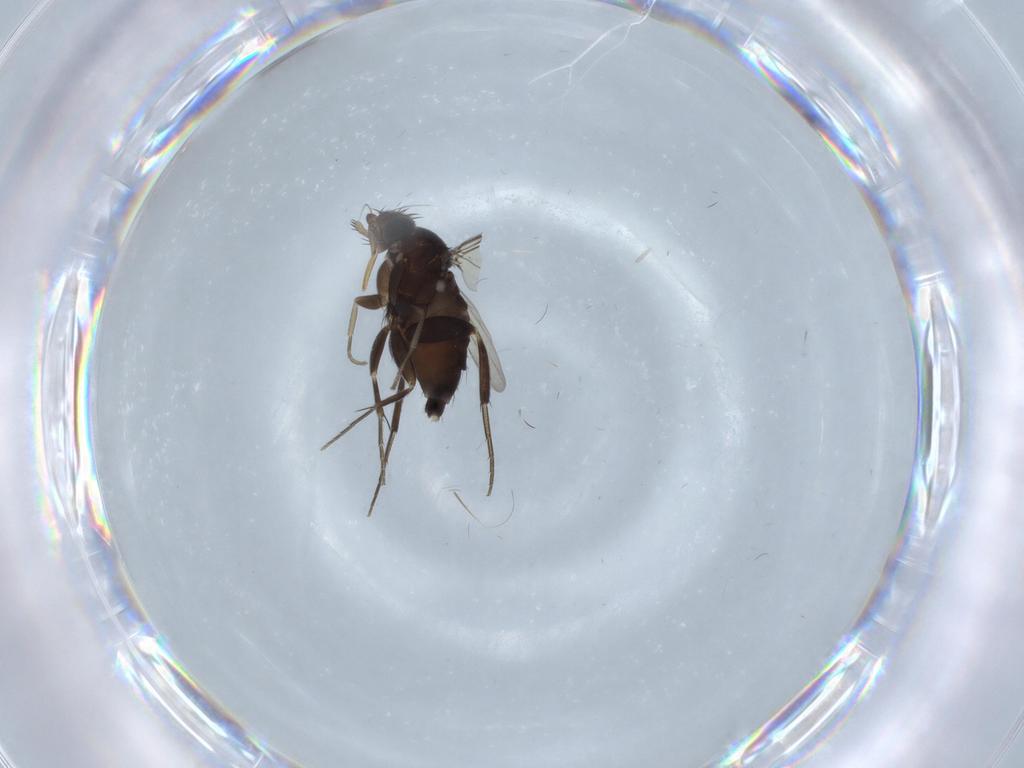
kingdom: Animalia
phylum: Arthropoda
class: Insecta
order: Diptera
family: Phoridae
